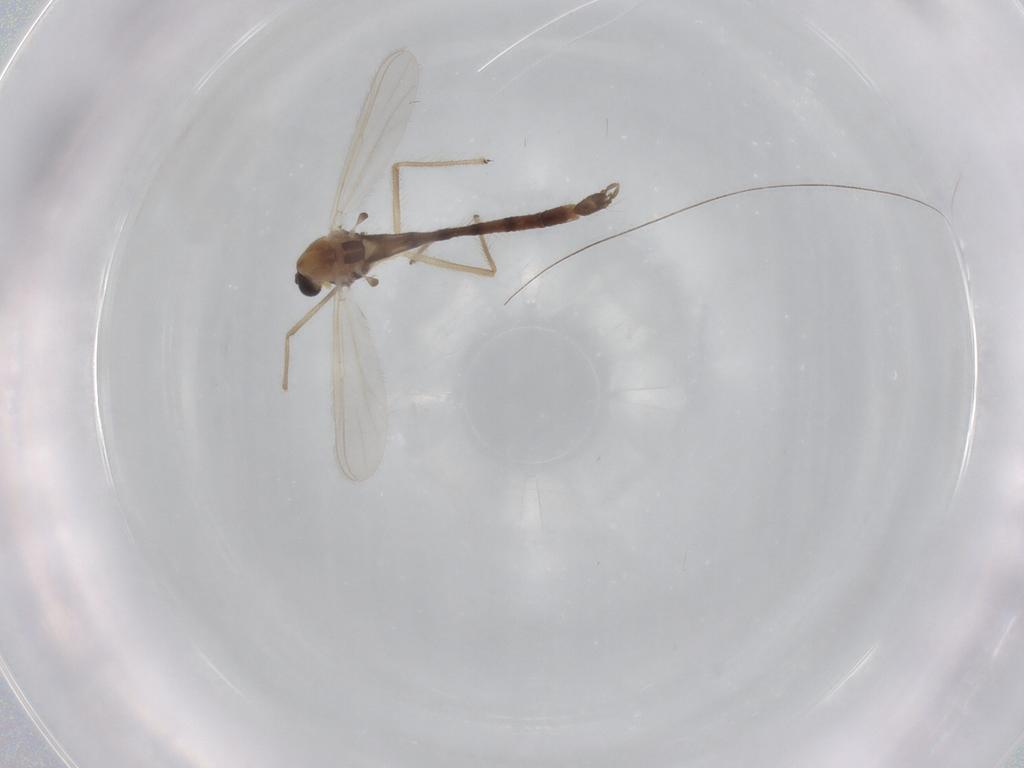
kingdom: Animalia
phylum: Arthropoda
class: Insecta
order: Diptera
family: Chironomidae
